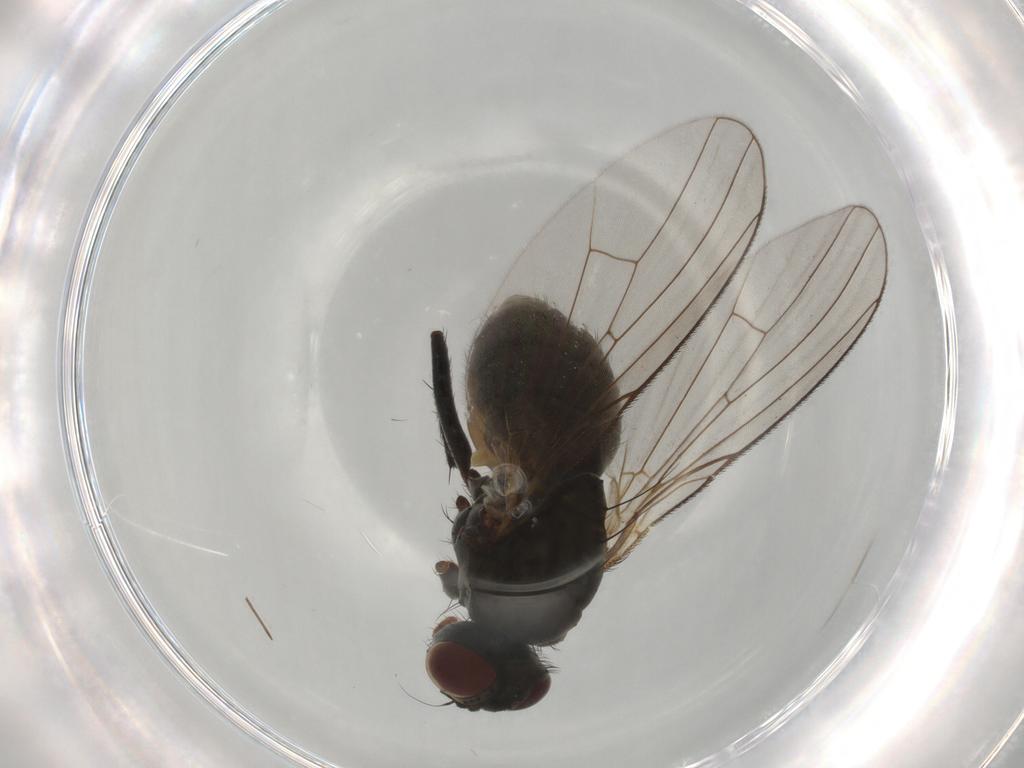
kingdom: Animalia
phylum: Arthropoda
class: Insecta
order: Diptera
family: Muscidae
